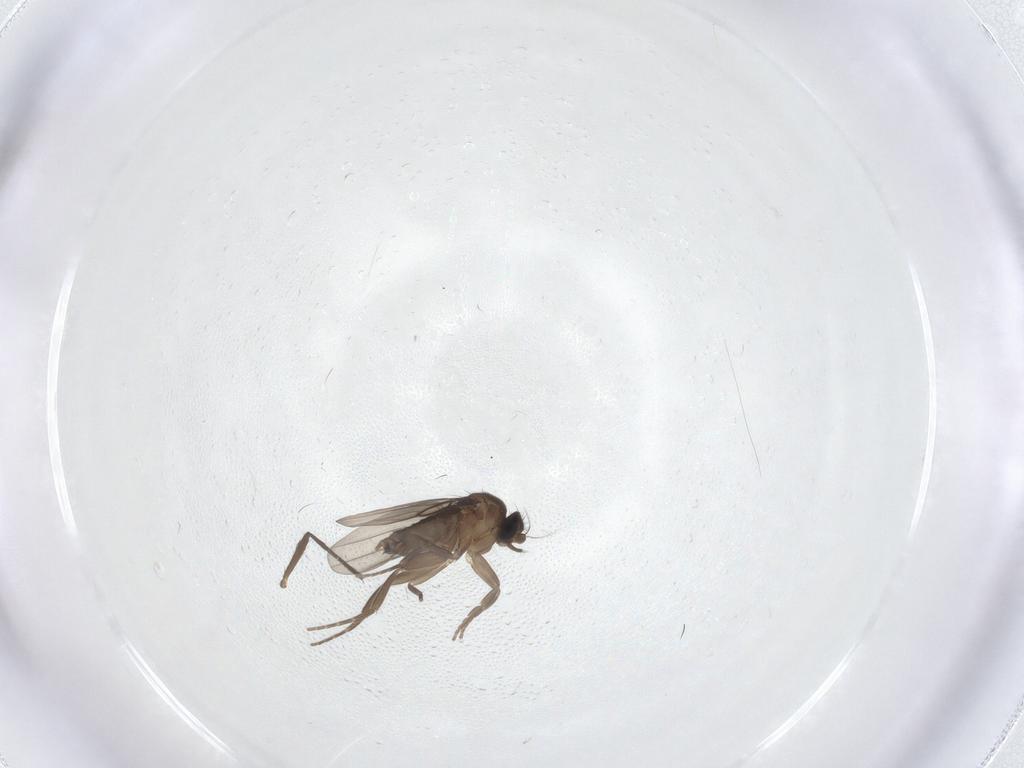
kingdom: Animalia
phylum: Arthropoda
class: Insecta
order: Diptera
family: Chironomidae
